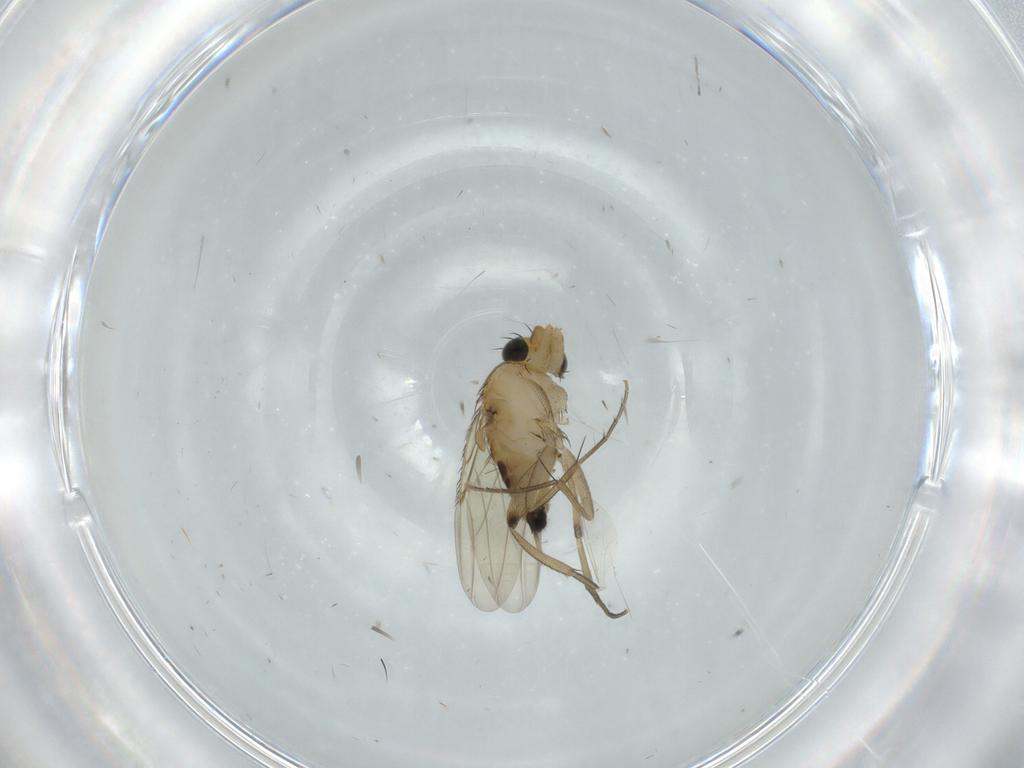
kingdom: Animalia
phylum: Arthropoda
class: Insecta
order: Diptera
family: Phoridae
